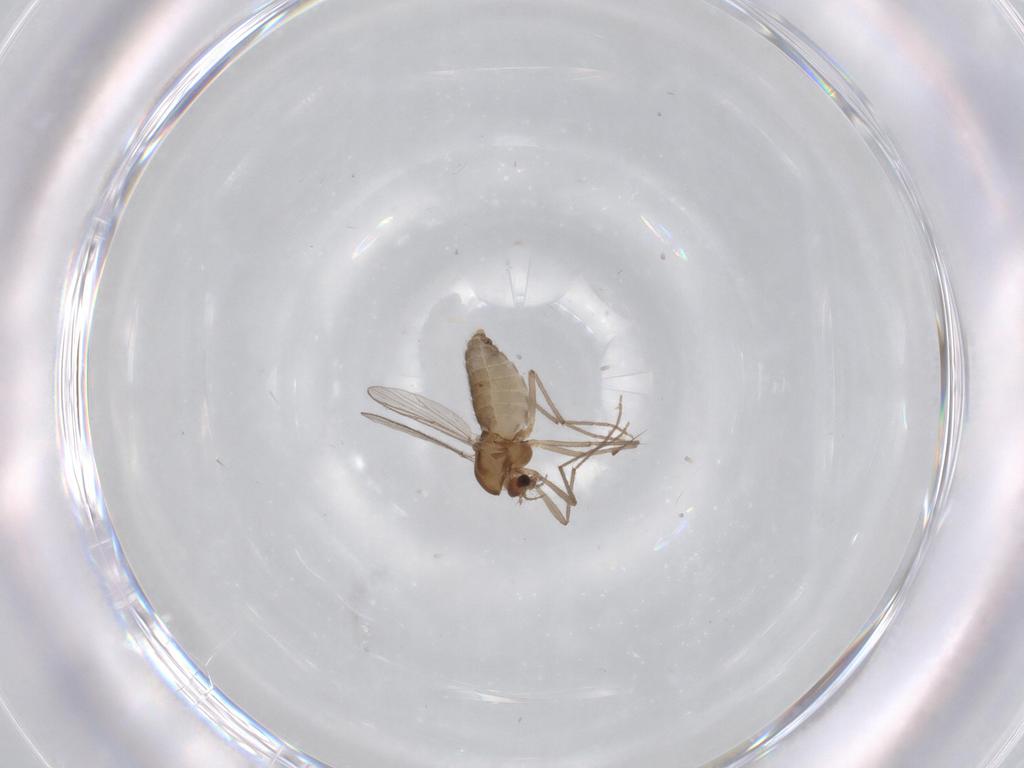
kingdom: Animalia
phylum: Arthropoda
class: Insecta
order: Diptera
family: Chironomidae
